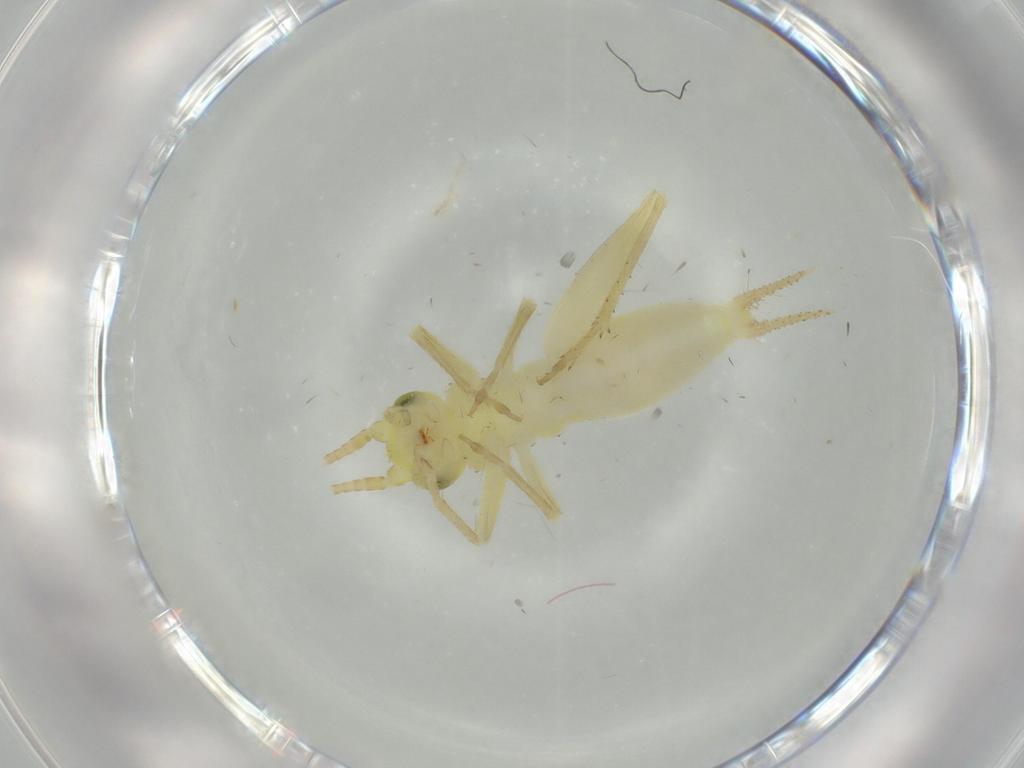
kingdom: Animalia
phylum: Arthropoda
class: Insecta
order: Orthoptera
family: Trigonidiidae
